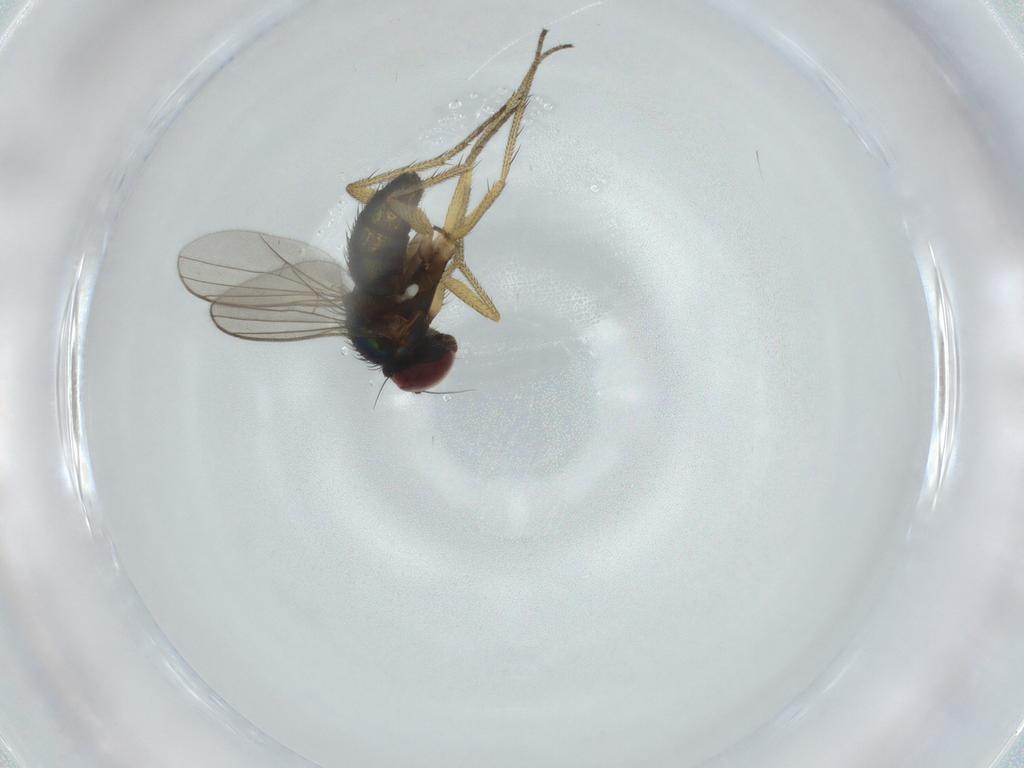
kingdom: Animalia
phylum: Arthropoda
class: Insecta
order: Diptera
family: Dolichopodidae
